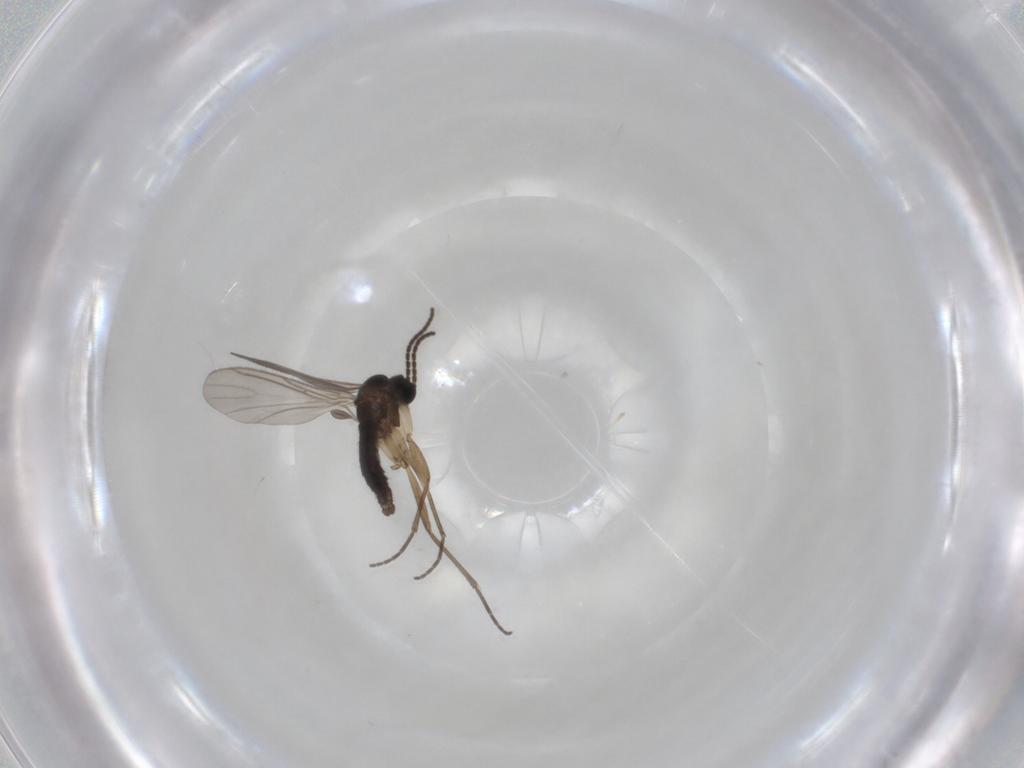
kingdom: Animalia
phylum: Arthropoda
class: Insecta
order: Diptera
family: Chironomidae
